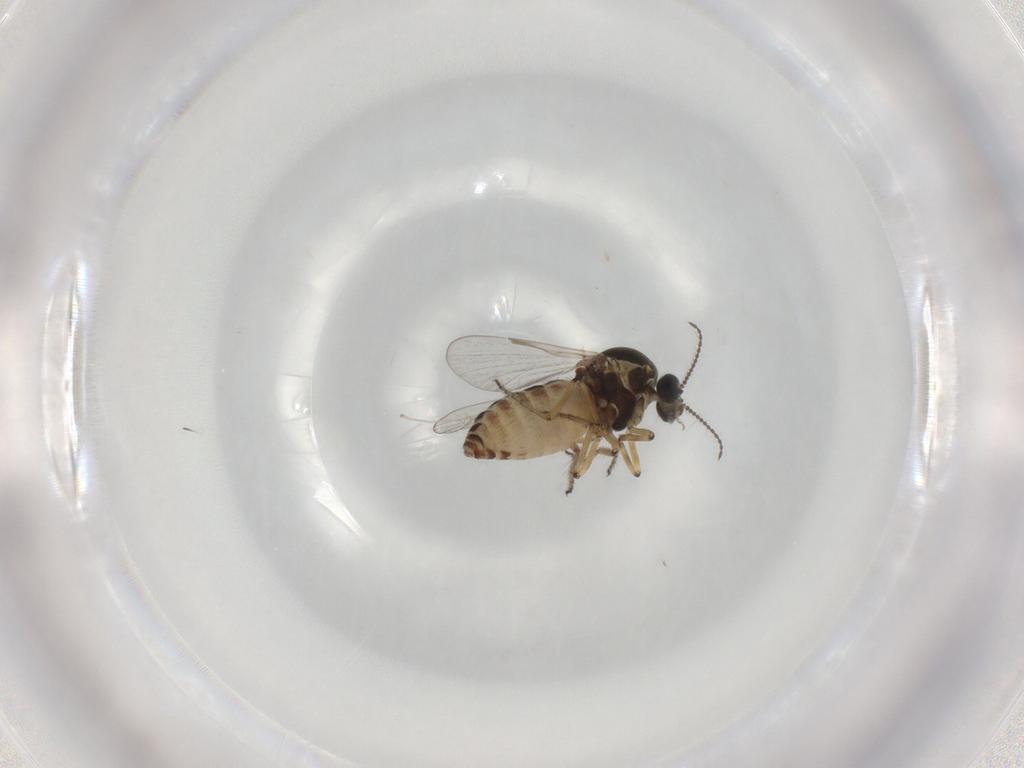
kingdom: Animalia
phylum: Arthropoda
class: Insecta
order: Diptera
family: Ceratopogonidae
